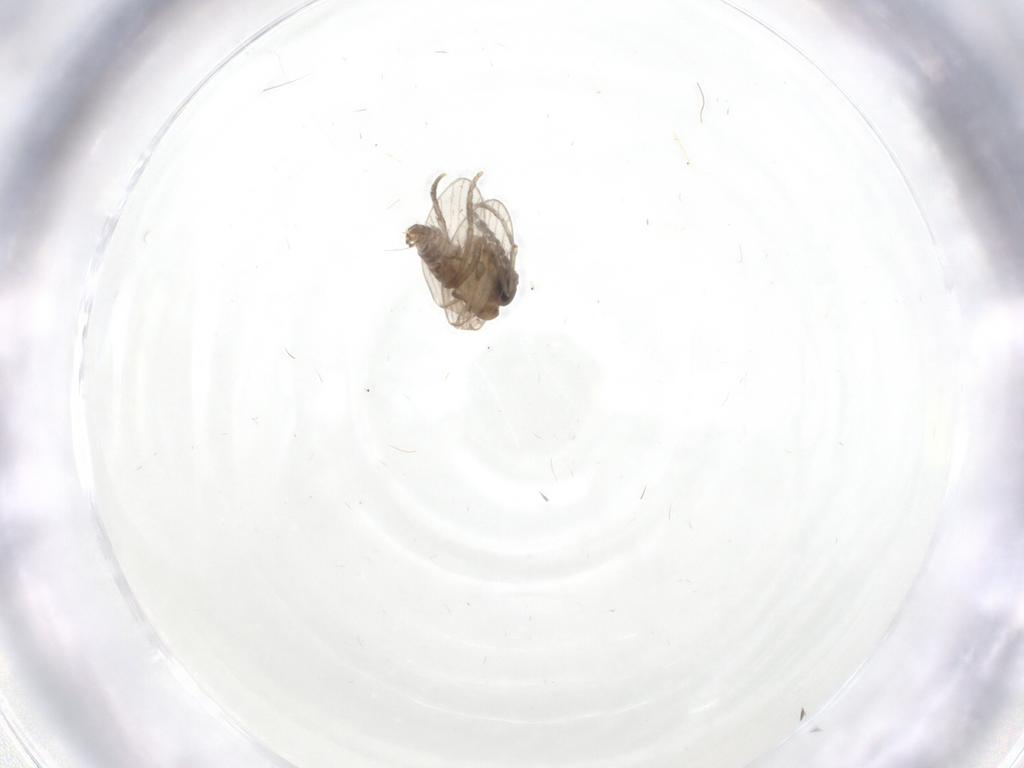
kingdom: Animalia
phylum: Arthropoda
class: Insecta
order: Diptera
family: Psychodidae
